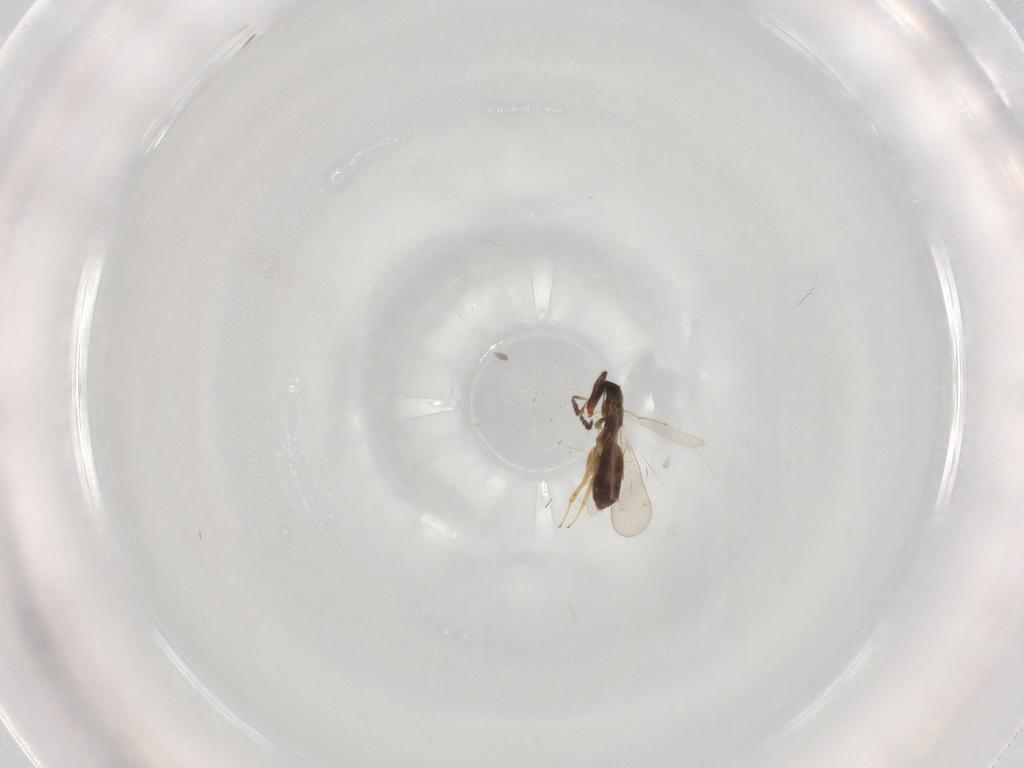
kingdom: Animalia
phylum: Arthropoda
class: Insecta
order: Hymenoptera
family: Eulophidae
